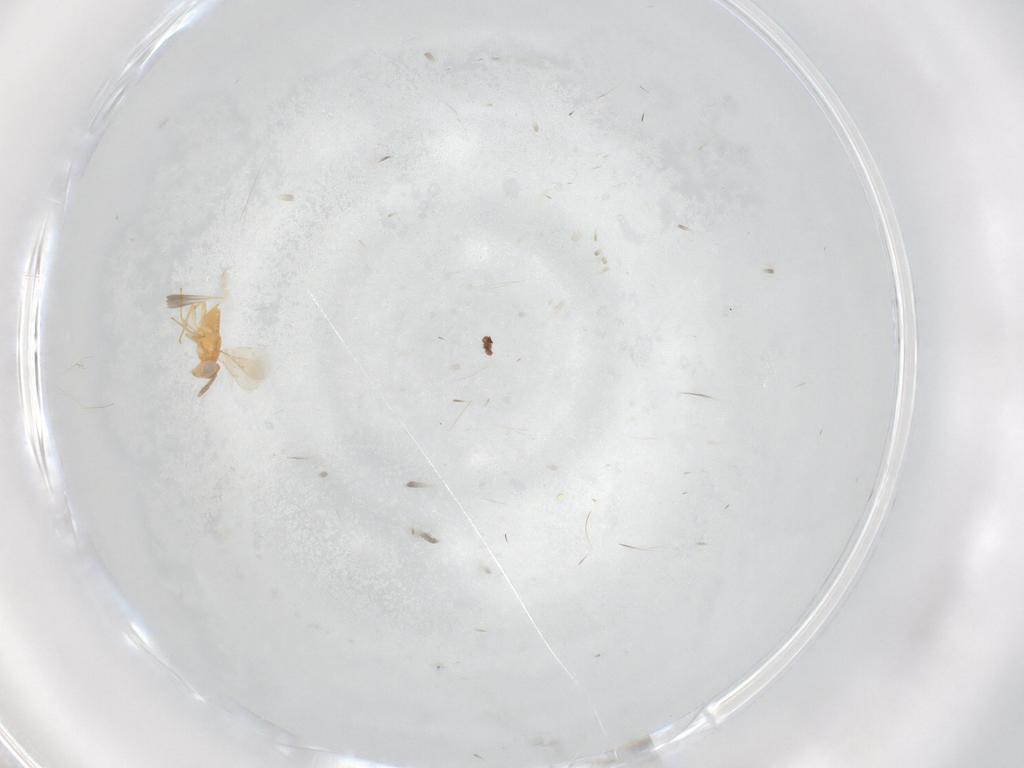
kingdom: Animalia
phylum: Arthropoda
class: Insecta
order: Hymenoptera
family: Aphelinidae
